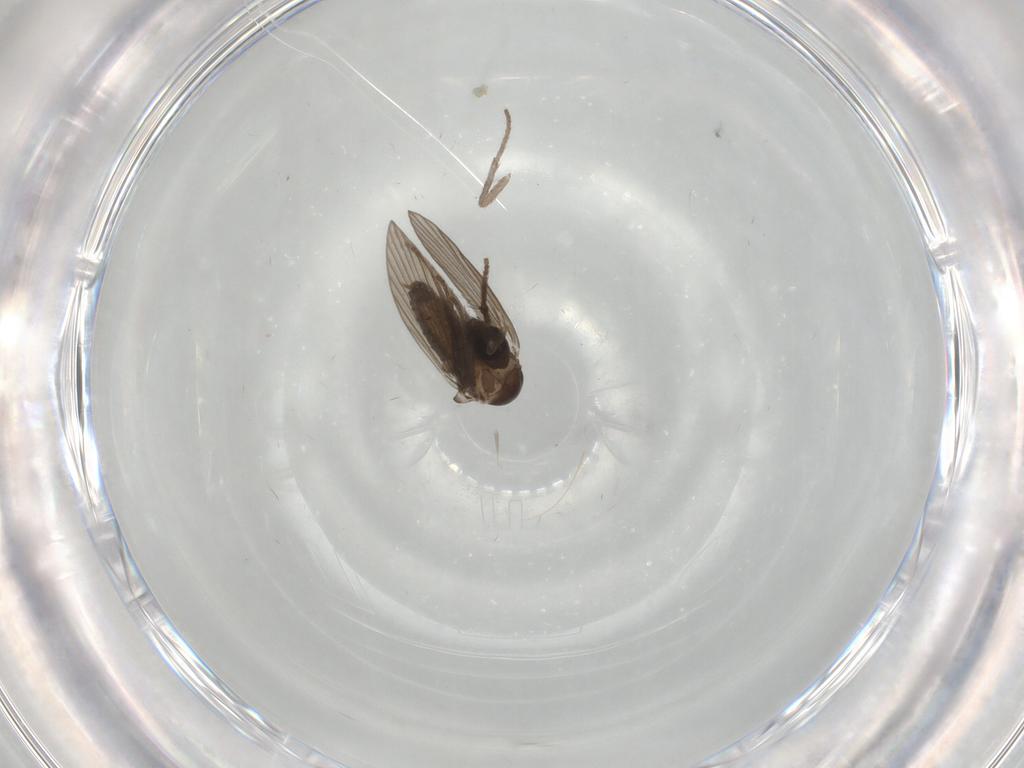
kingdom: Animalia
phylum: Arthropoda
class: Insecta
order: Diptera
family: Psychodidae
